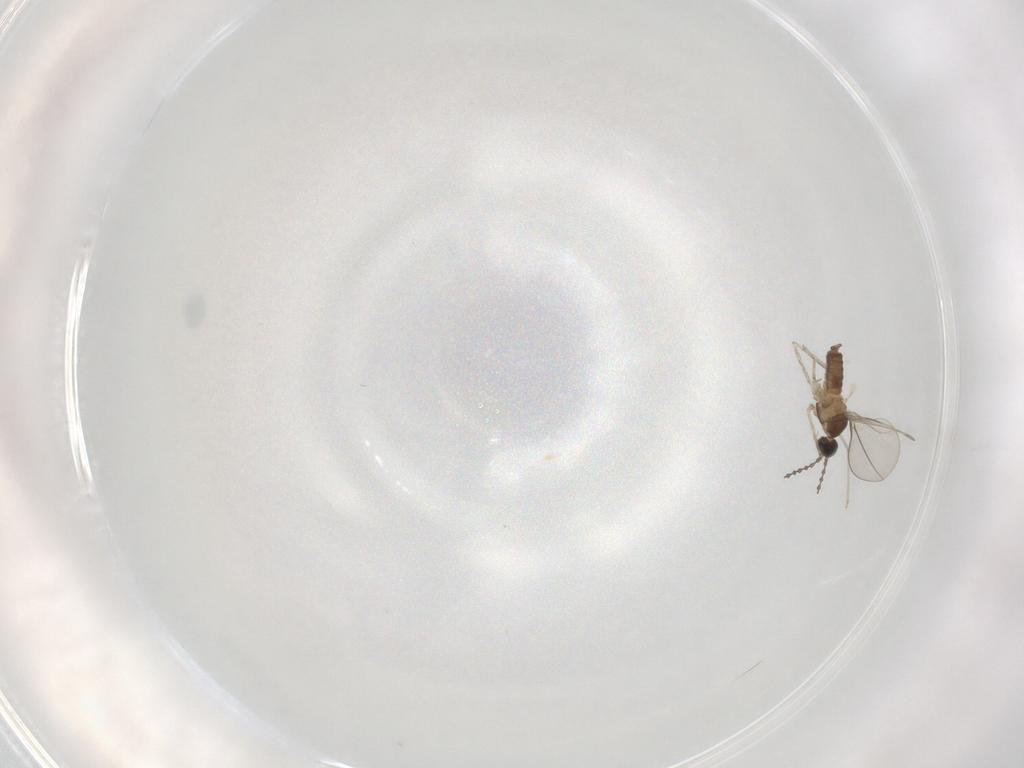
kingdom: Animalia
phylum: Arthropoda
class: Insecta
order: Diptera
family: Cecidomyiidae
